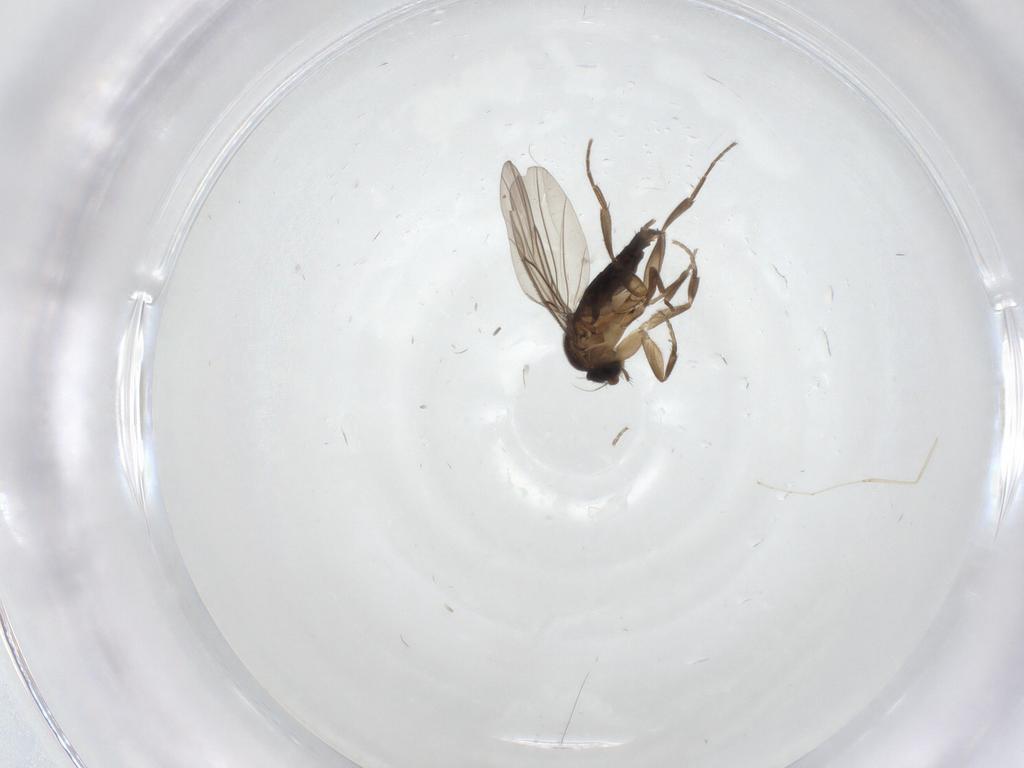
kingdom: Animalia
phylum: Arthropoda
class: Insecta
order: Diptera
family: Phoridae
